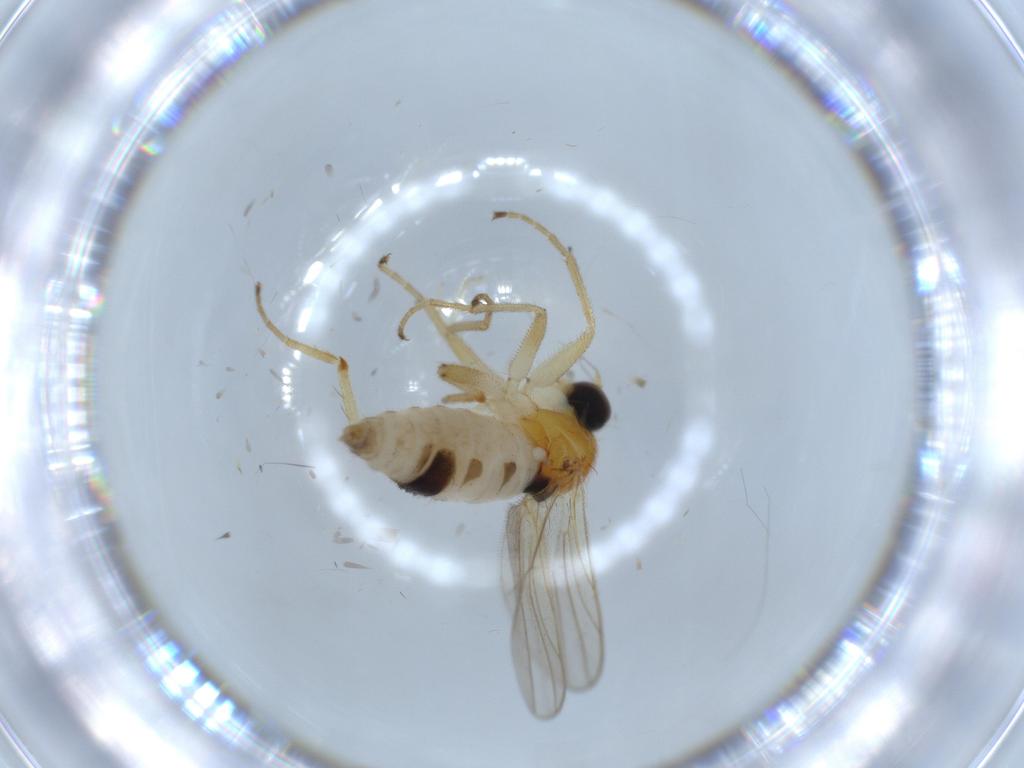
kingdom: Animalia
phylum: Arthropoda
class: Insecta
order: Diptera
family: Hybotidae
